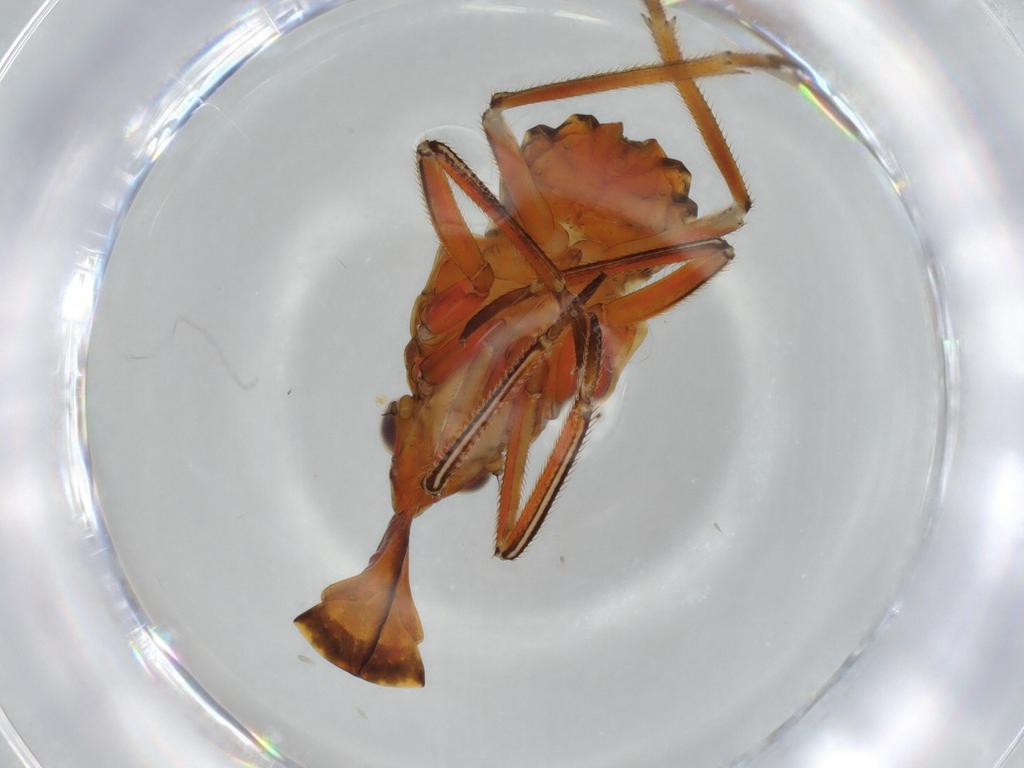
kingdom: Animalia
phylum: Arthropoda
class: Insecta
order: Hemiptera
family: Fulgoridae
